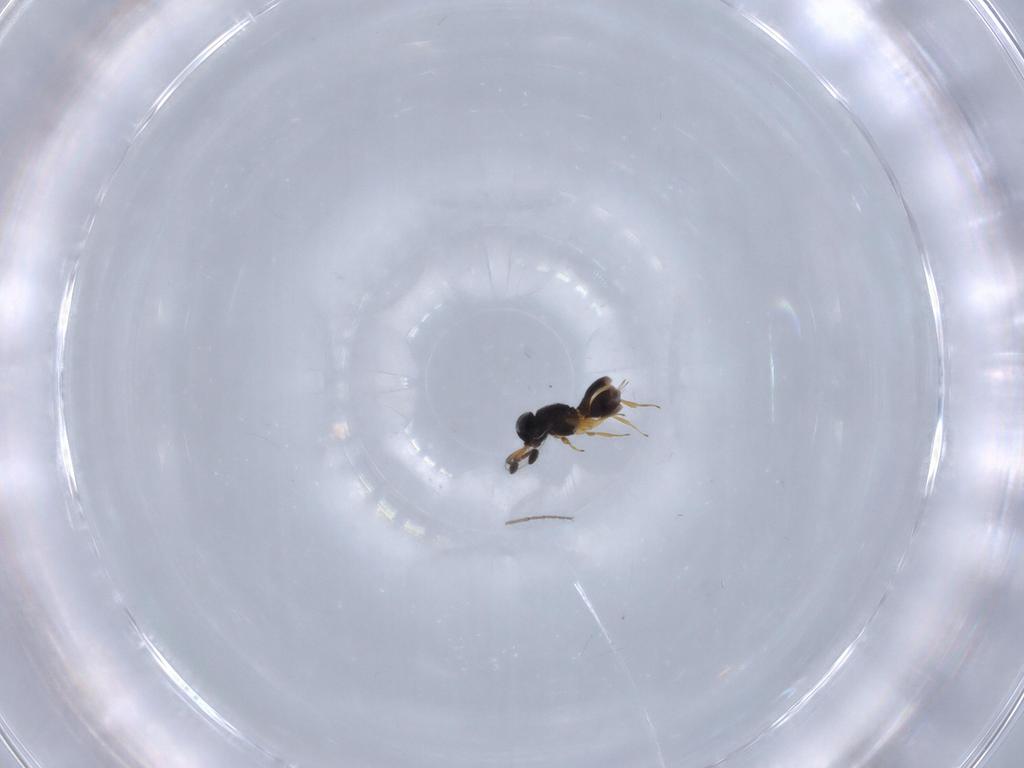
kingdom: Animalia
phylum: Arthropoda
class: Insecta
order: Hymenoptera
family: Scelionidae
